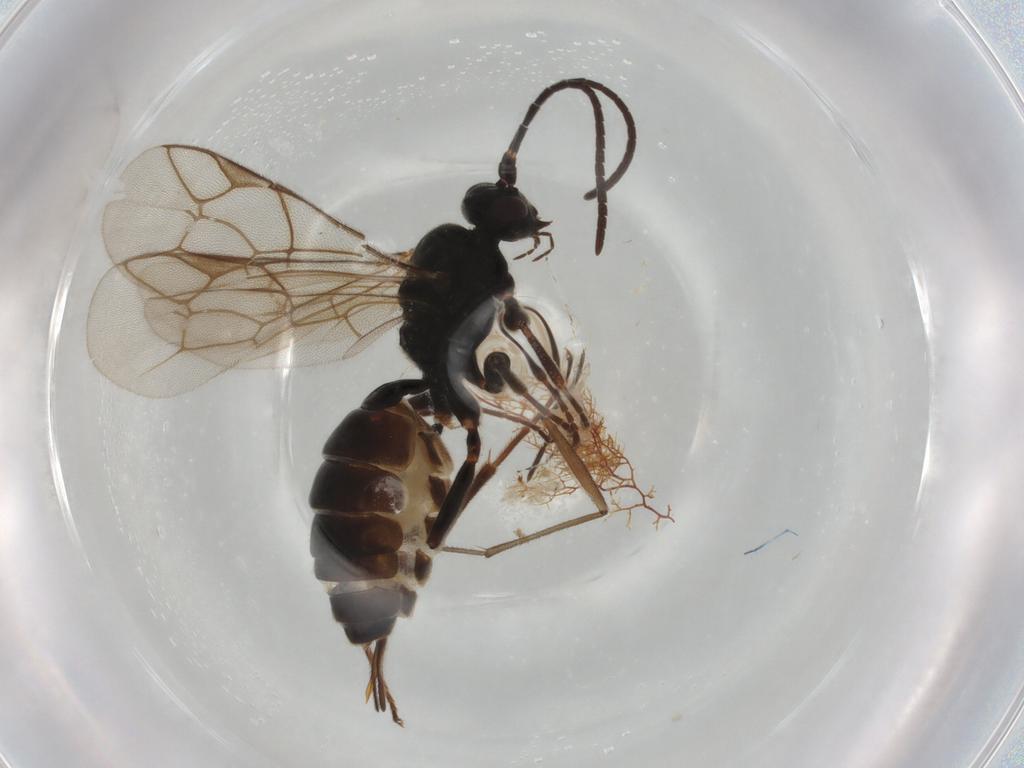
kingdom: Animalia
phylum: Arthropoda
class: Insecta
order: Hymenoptera
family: Ichneumonidae
